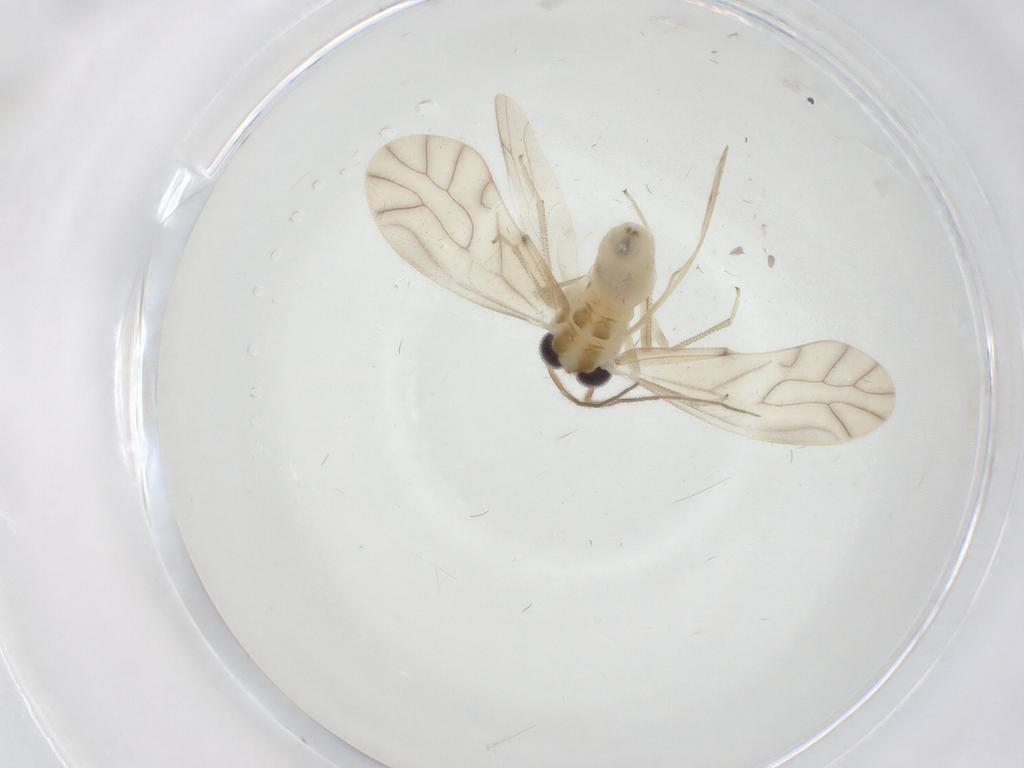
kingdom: Animalia
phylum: Arthropoda
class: Insecta
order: Psocodea
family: Caeciliusidae
